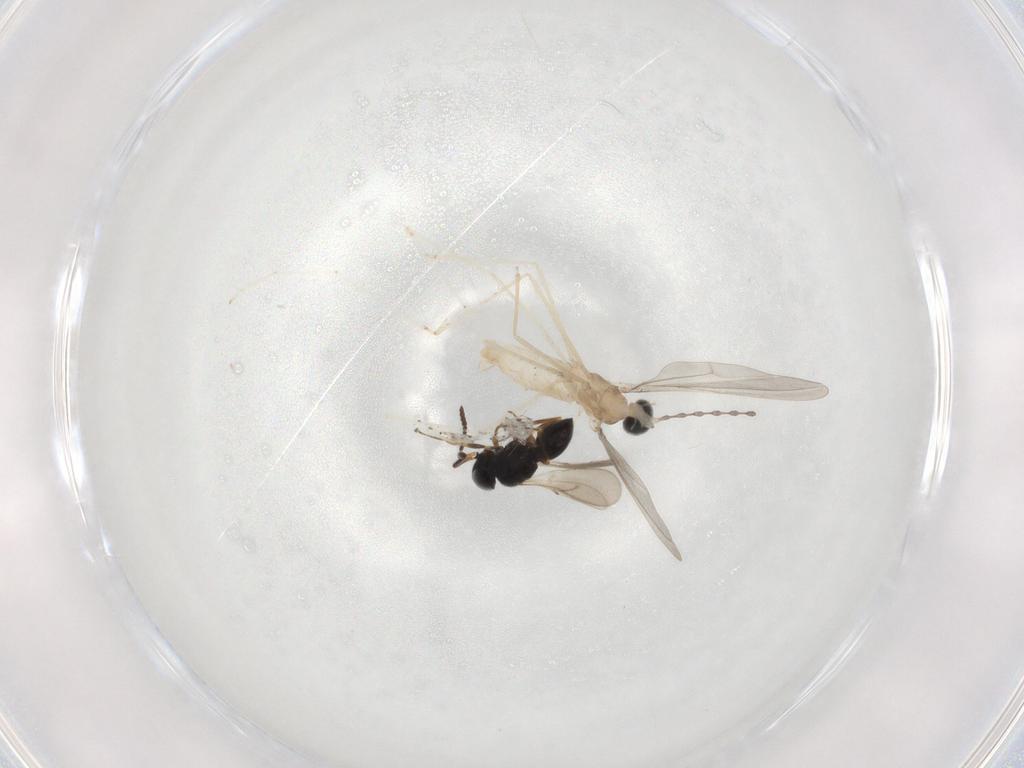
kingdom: Animalia
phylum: Arthropoda
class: Insecta
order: Diptera
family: Cecidomyiidae
